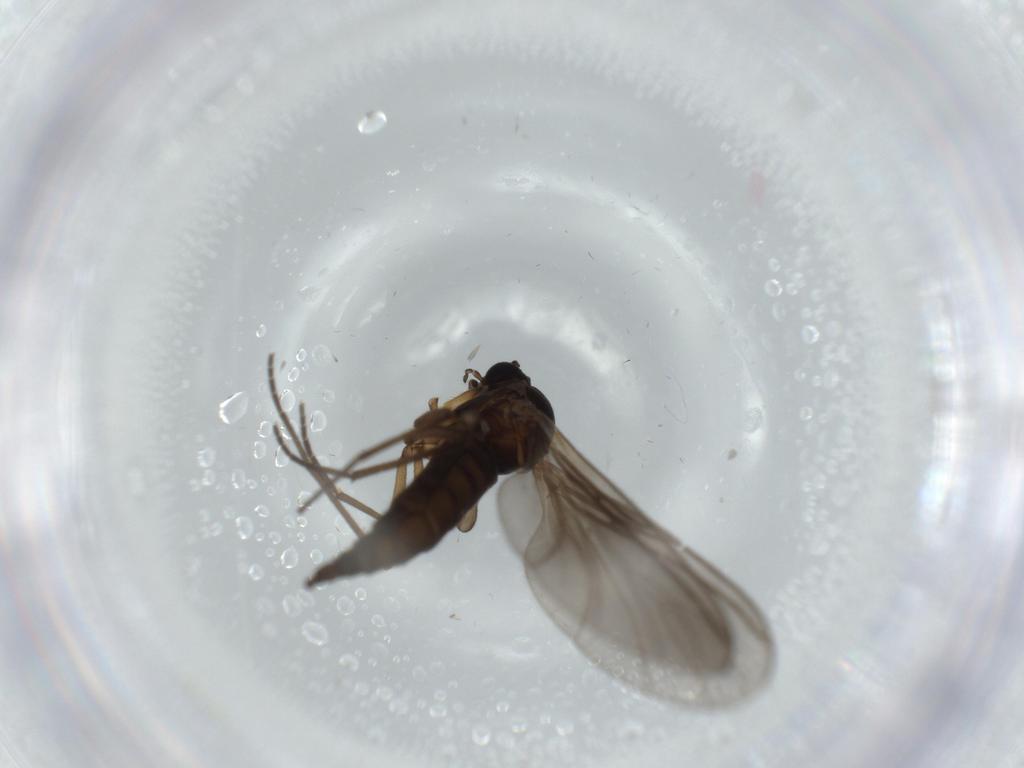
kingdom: Animalia
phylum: Arthropoda
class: Insecta
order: Diptera
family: Sciaridae
